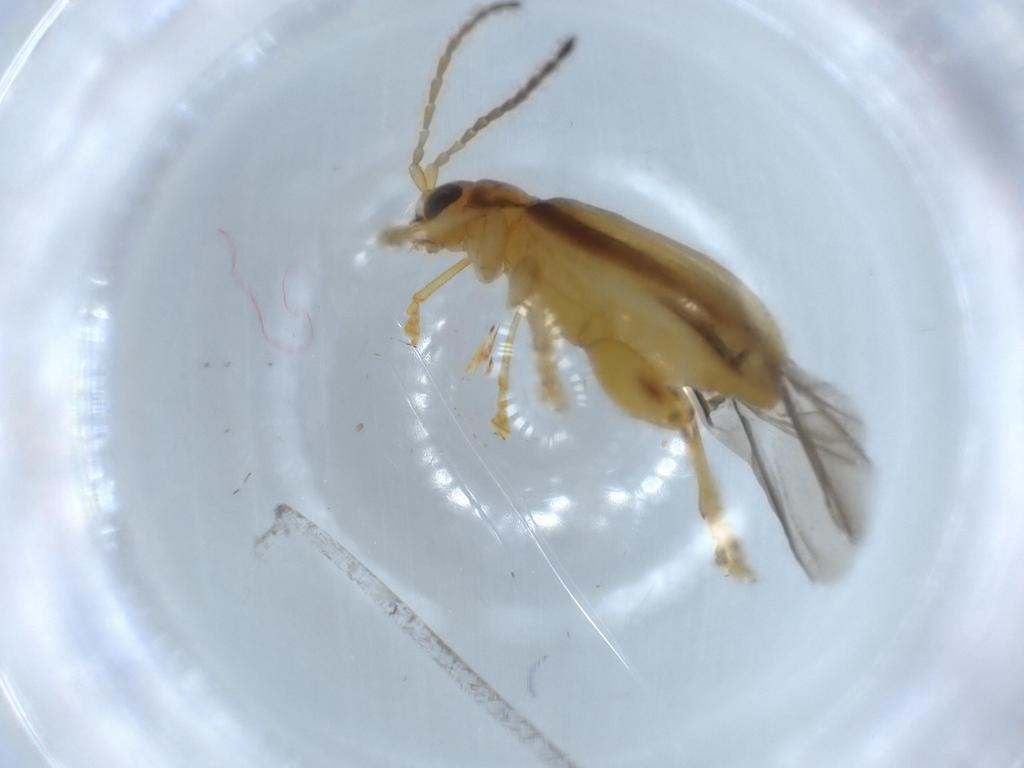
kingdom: Animalia
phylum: Arthropoda
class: Insecta
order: Coleoptera
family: Chrysomelidae
